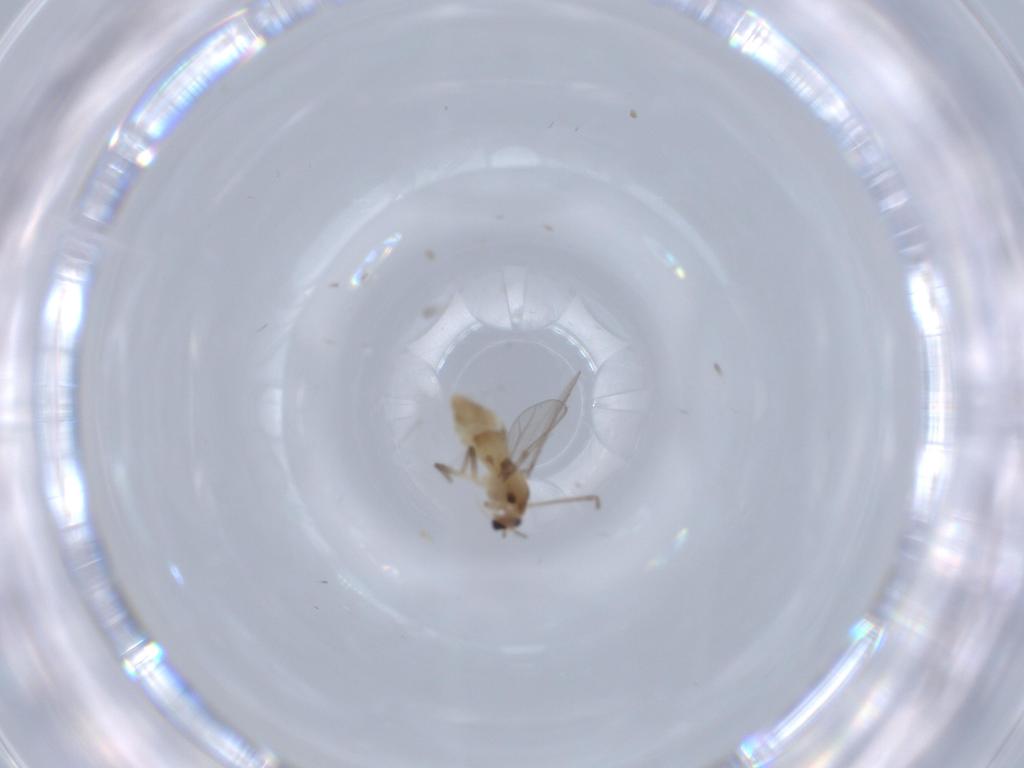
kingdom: Animalia
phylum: Arthropoda
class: Insecta
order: Diptera
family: Chironomidae
